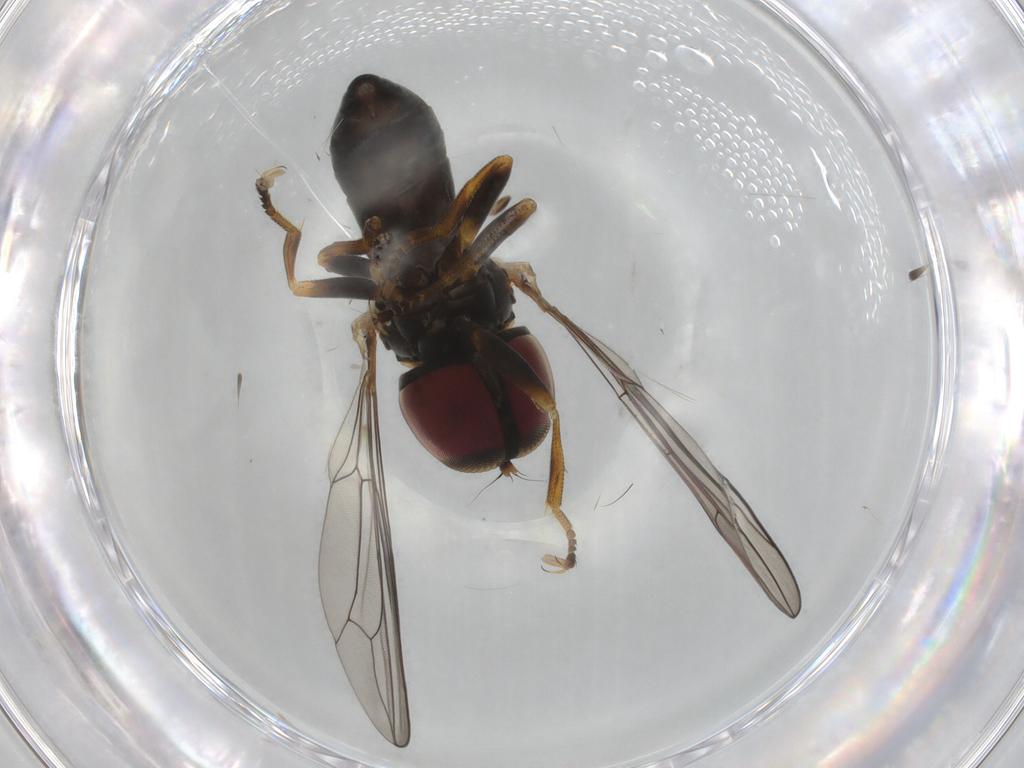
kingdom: Animalia
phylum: Arthropoda
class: Insecta
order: Diptera
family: Pipunculidae
